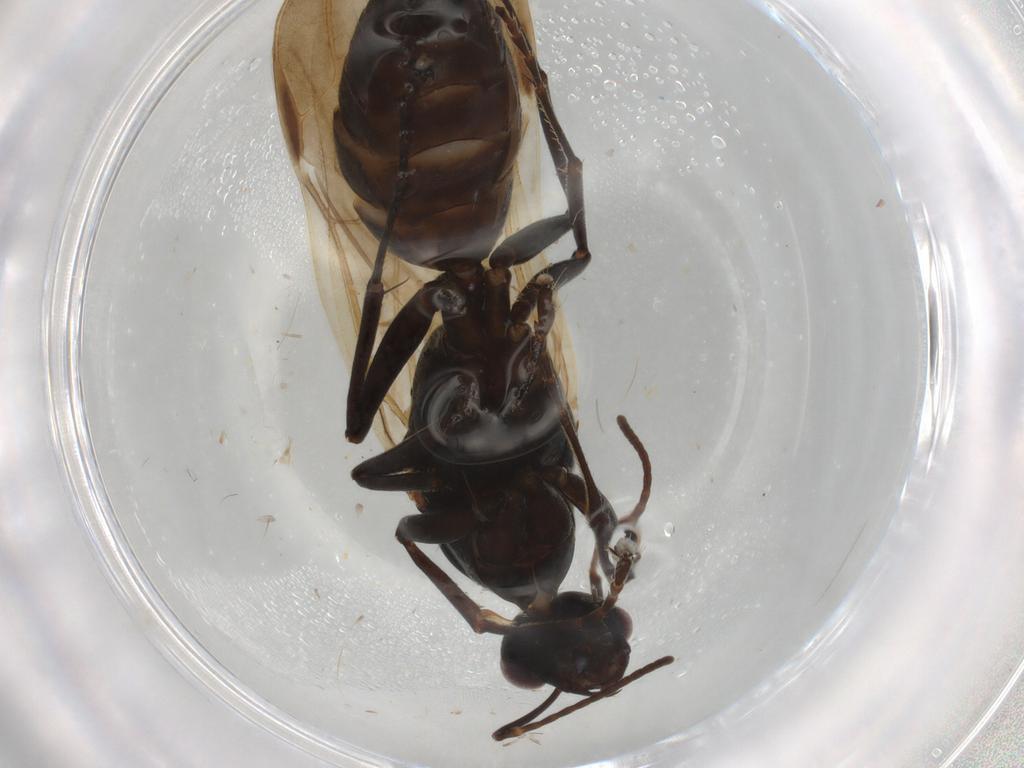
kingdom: Animalia
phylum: Arthropoda
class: Insecta
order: Hymenoptera
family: Formicidae
